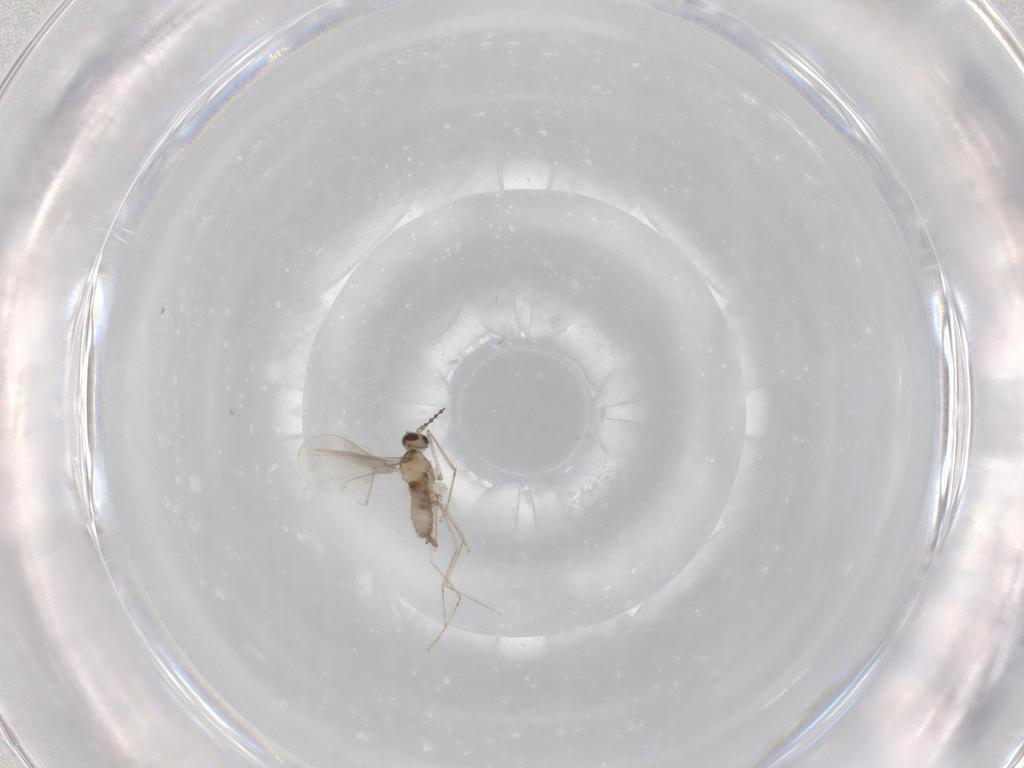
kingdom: Animalia
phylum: Arthropoda
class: Insecta
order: Diptera
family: Cecidomyiidae
